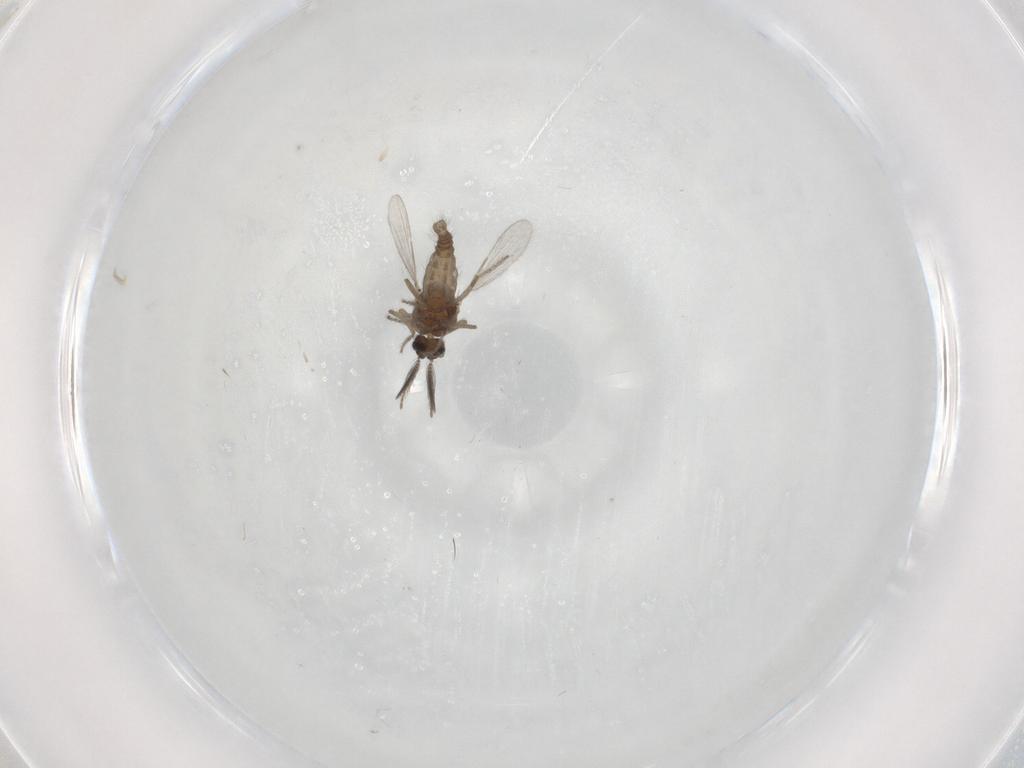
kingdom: Animalia
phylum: Arthropoda
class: Insecta
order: Diptera
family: Ceratopogonidae
